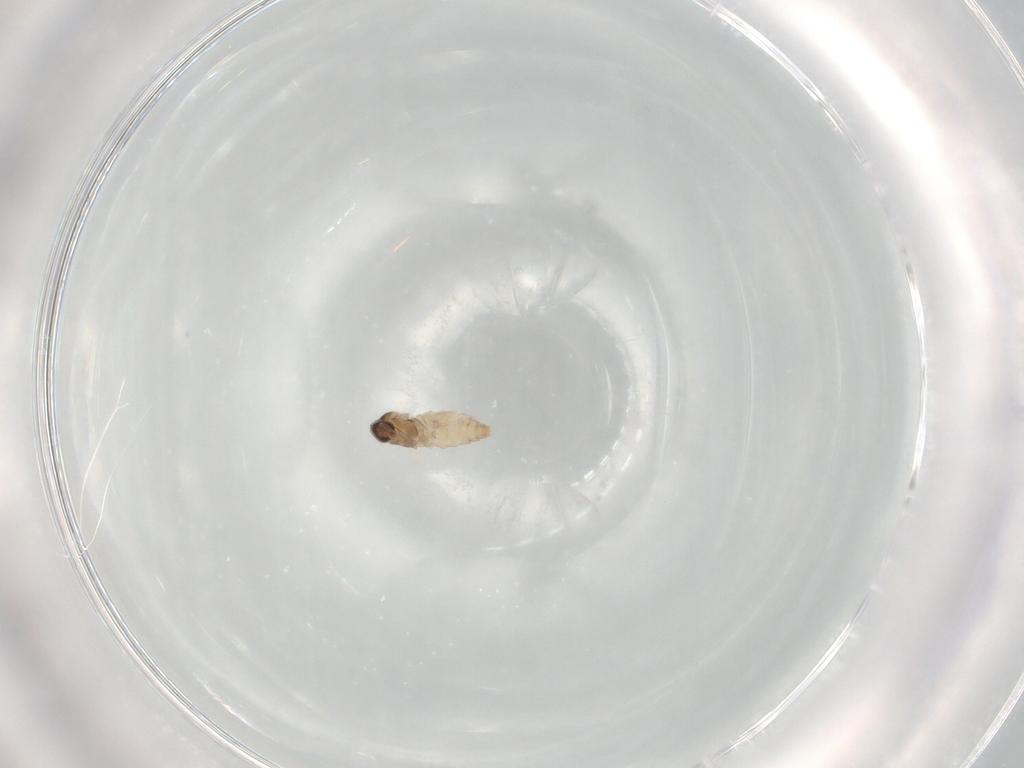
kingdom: Animalia
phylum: Arthropoda
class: Insecta
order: Diptera
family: Cecidomyiidae
